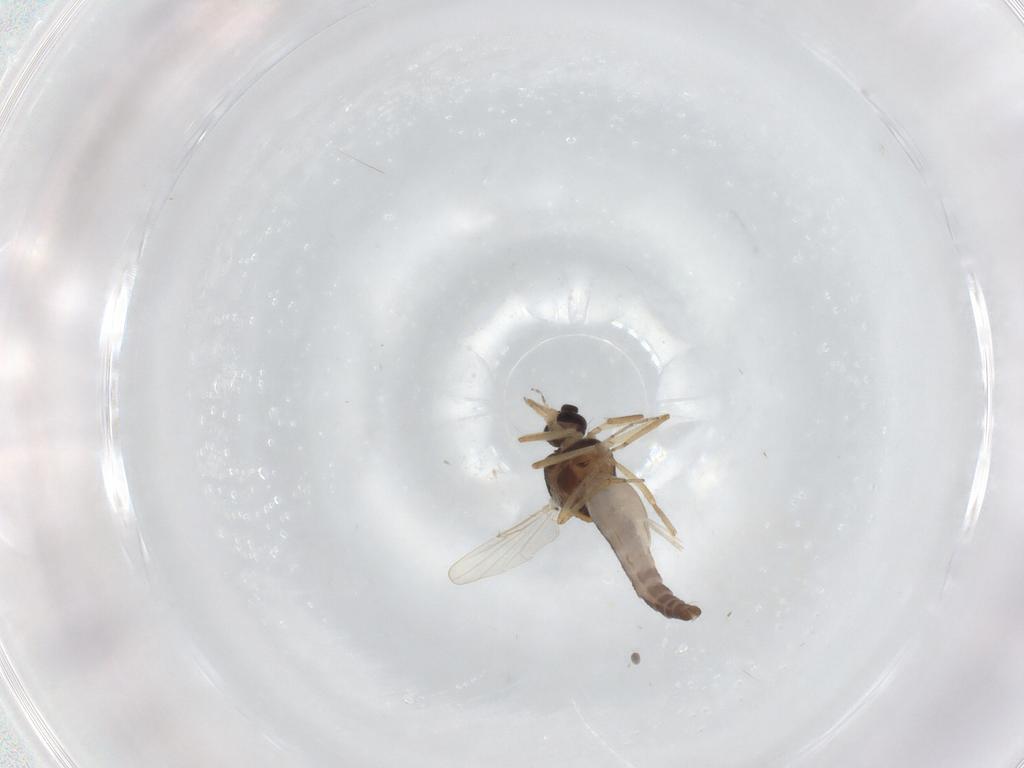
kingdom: Animalia
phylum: Arthropoda
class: Insecta
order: Diptera
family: Ceratopogonidae
